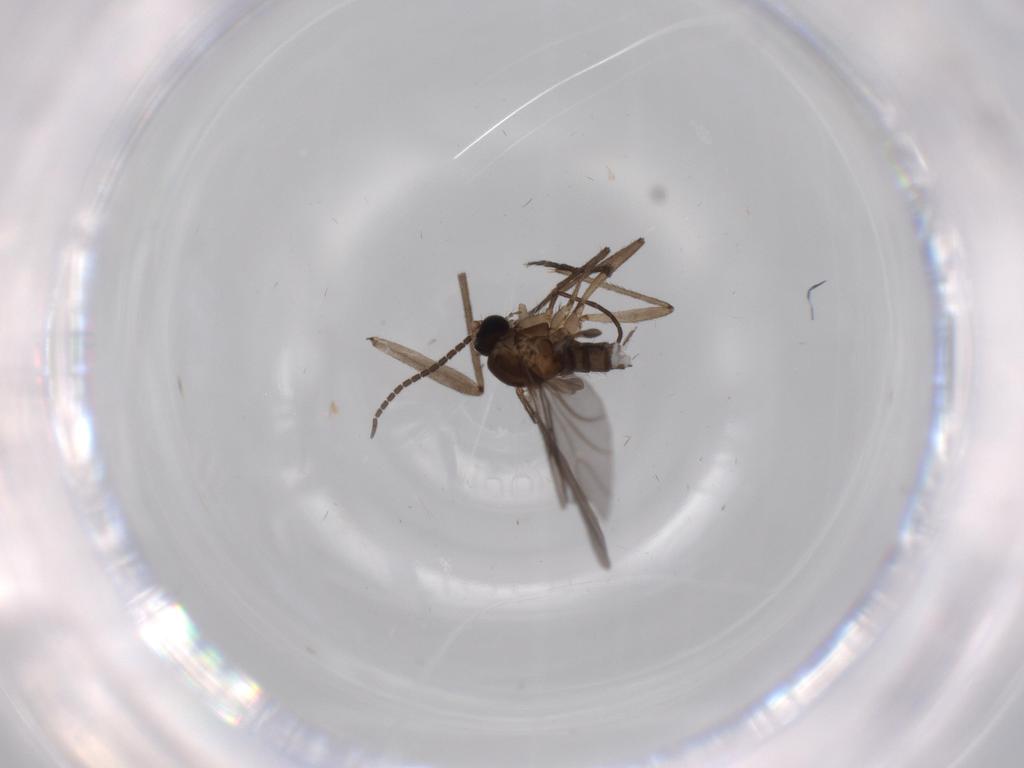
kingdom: Animalia
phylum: Arthropoda
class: Insecta
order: Diptera
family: Sciaridae
